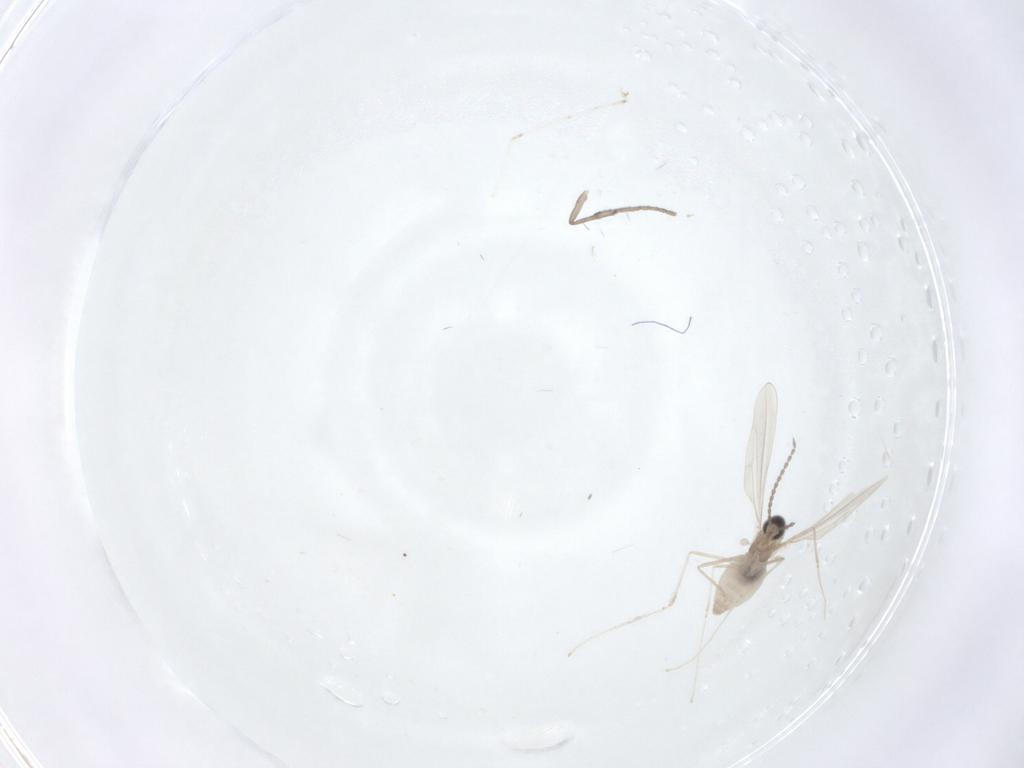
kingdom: Animalia
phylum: Arthropoda
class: Insecta
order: Diptera
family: Cecidomyiidae
